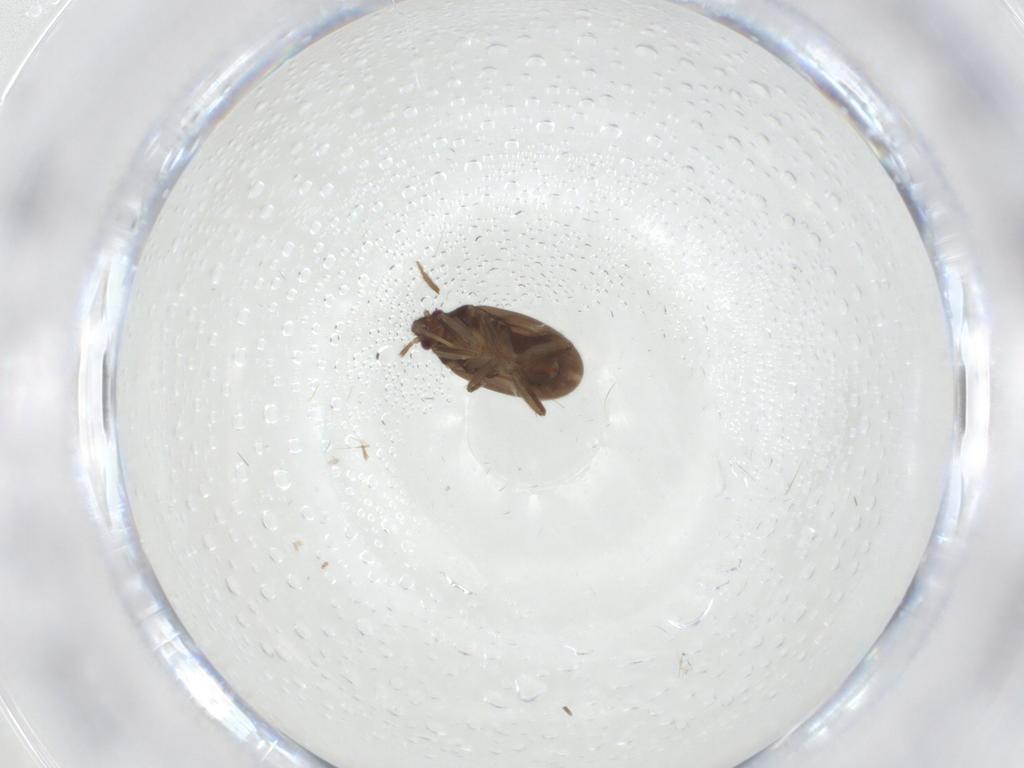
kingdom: Animalia
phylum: Arthropoda
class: Insecta
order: Hemiptera
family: Ceratocombidae
